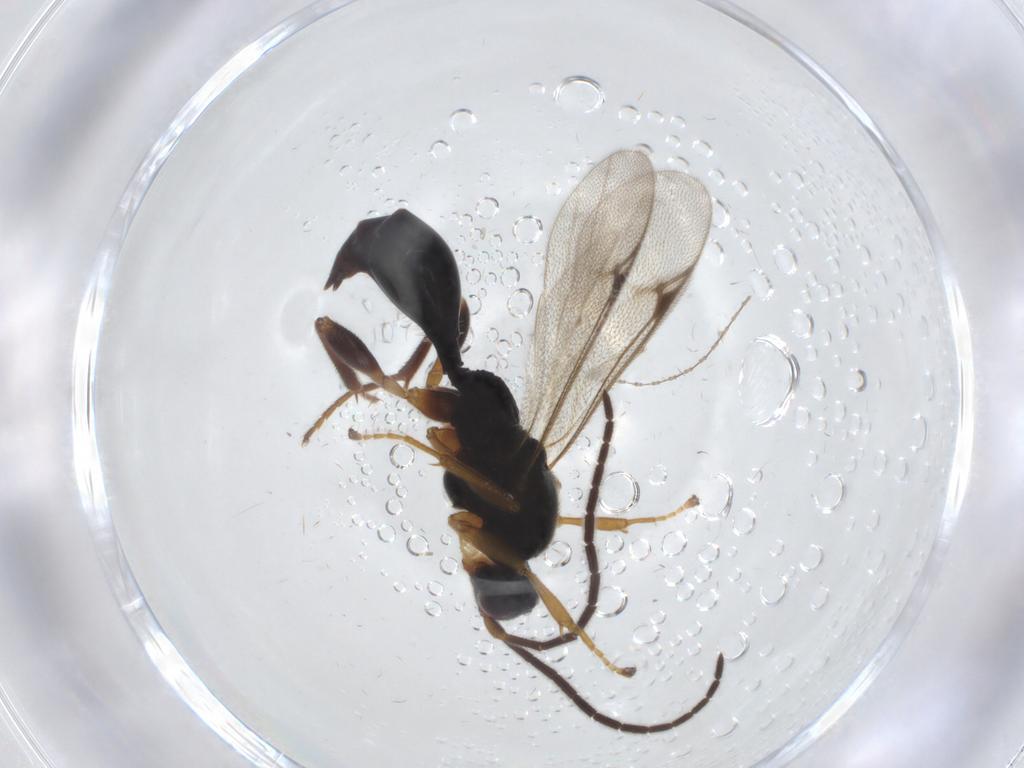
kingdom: Animalia
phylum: Arthropoda
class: Insecta
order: Hymenoptera
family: Proctotrupidae
